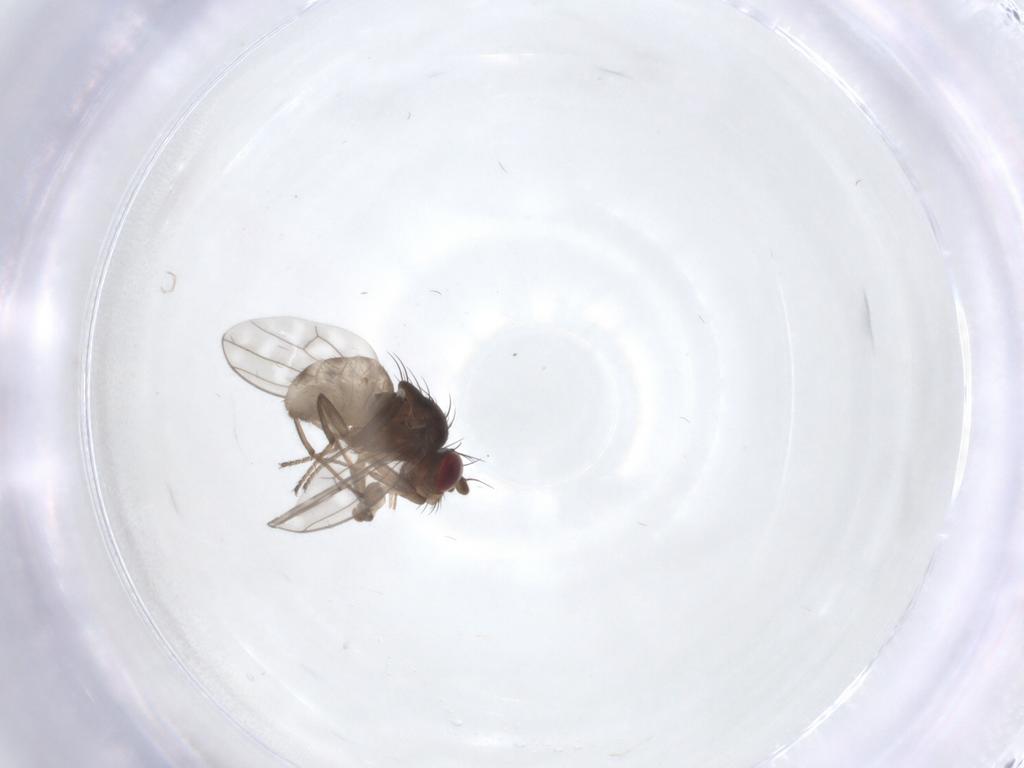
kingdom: Animalia
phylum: Arthropoda
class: Insecta
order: Diptera
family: Ephydridae
